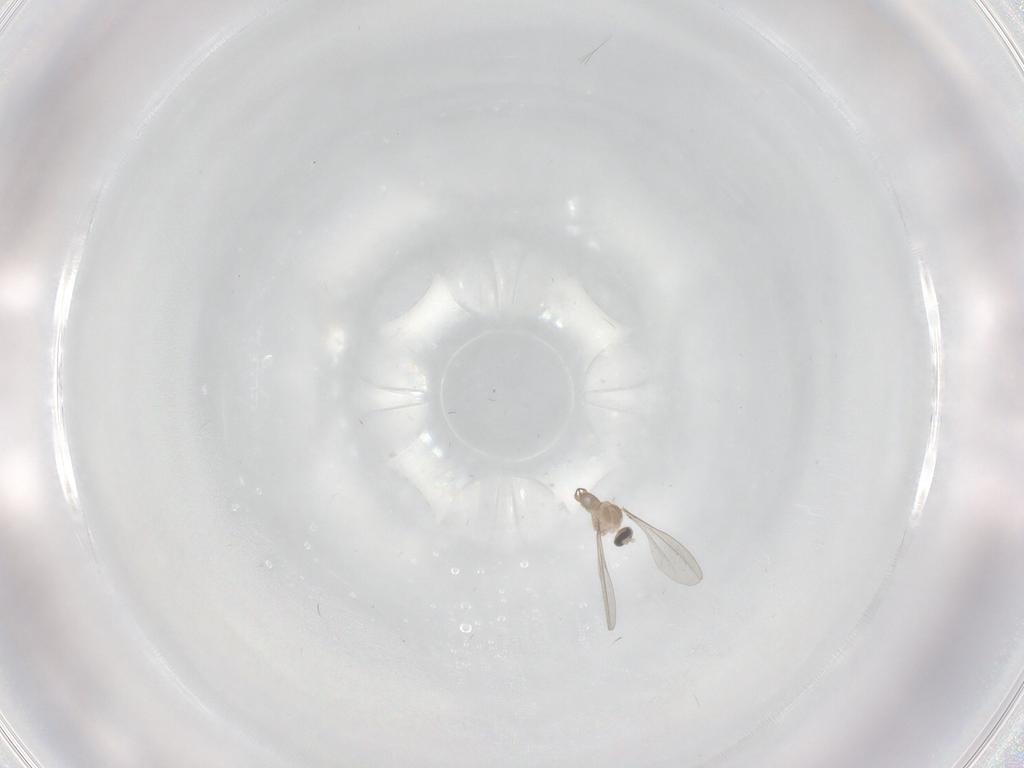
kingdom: Animalia
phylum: Arthropoda
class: Insecta
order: Diptera
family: Cecidomyiidae
